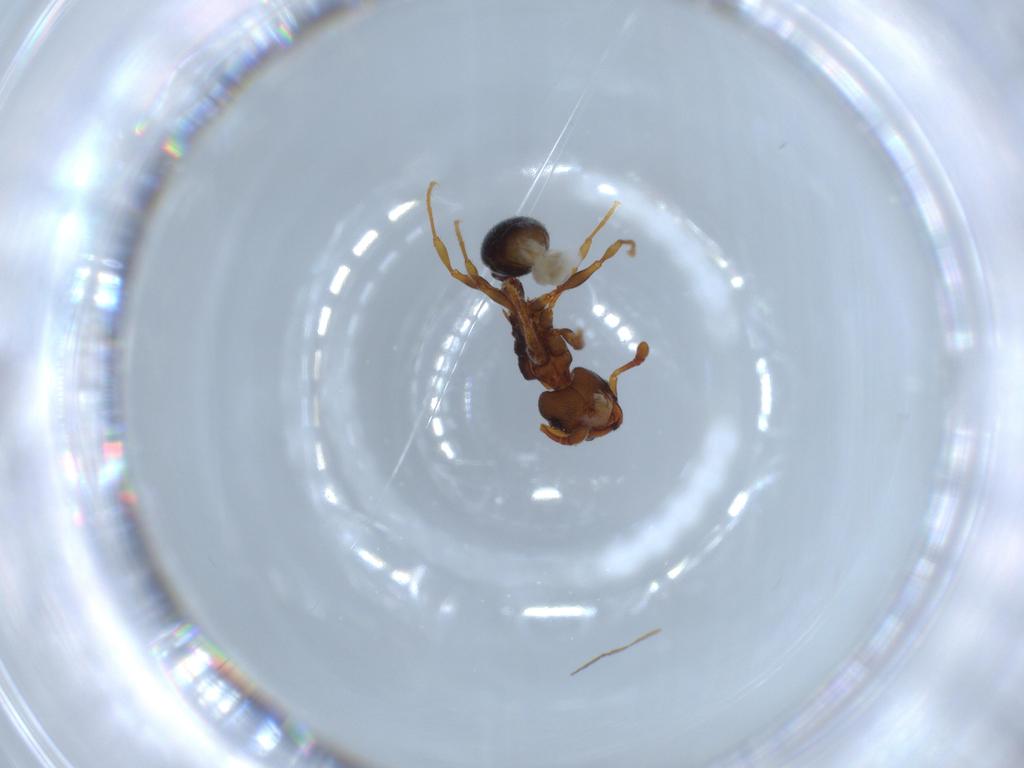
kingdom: Animalia
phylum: Arthropoda
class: Insecta
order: Hymenoptera
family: Formicidae
